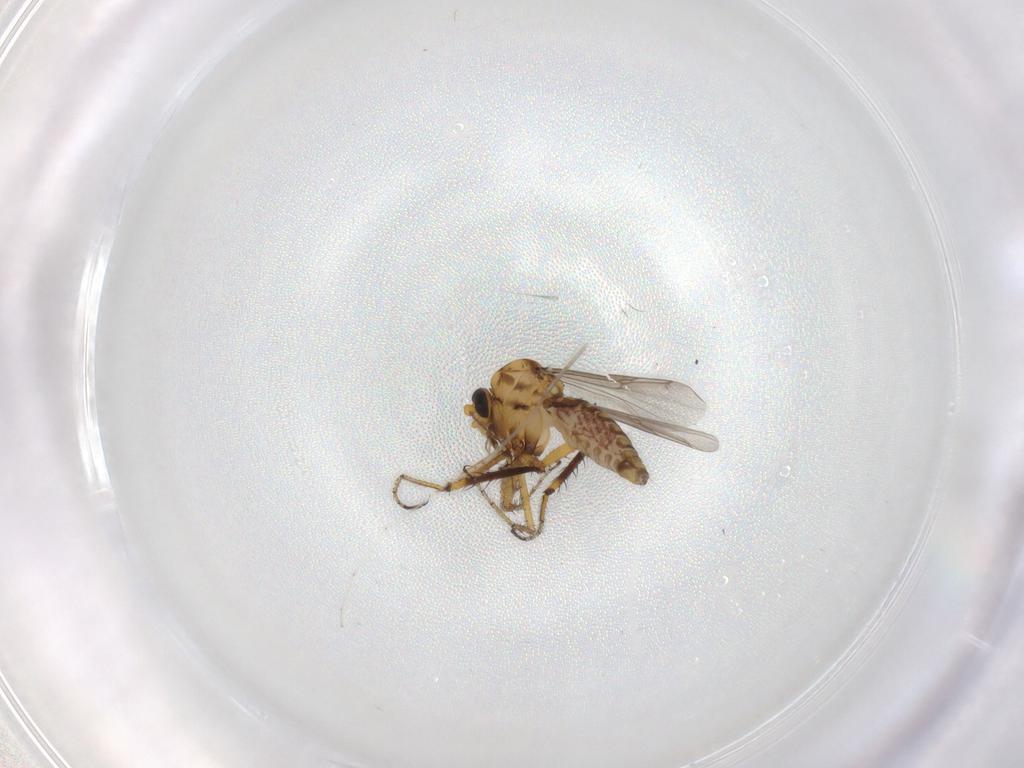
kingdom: Animalia
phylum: Arthropoda
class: Insecta
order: Diptera
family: Ceratopogonidae
